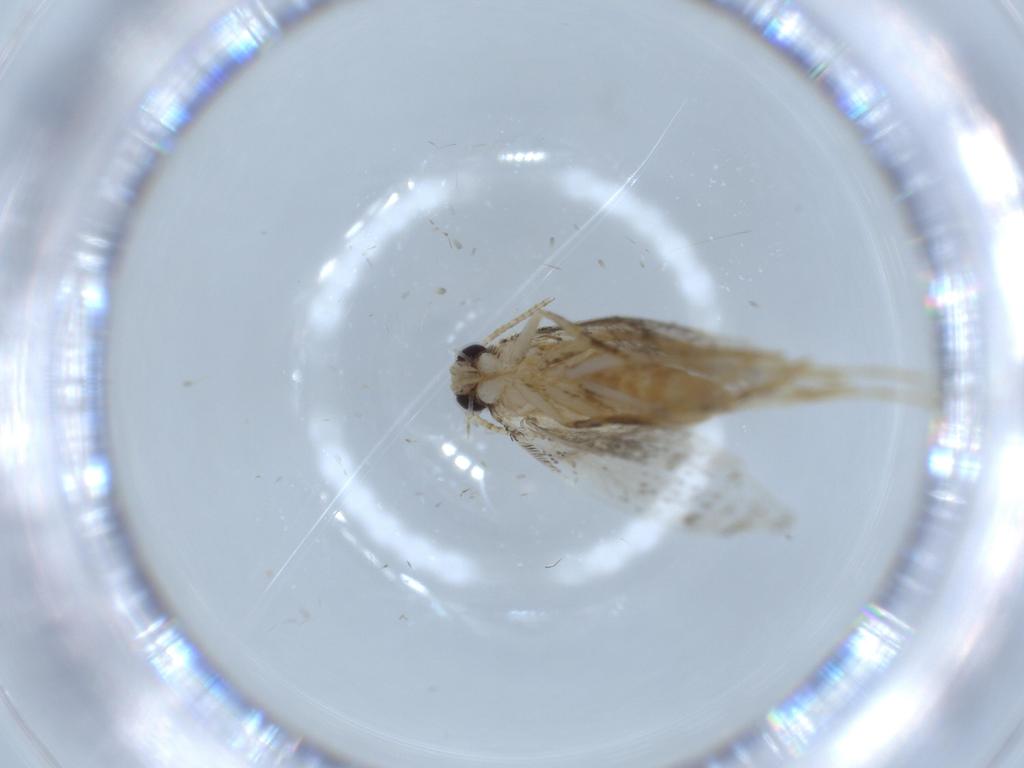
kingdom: Animalia
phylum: Arthropoda
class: Insecta
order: Lepidoptera
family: Tineidae
